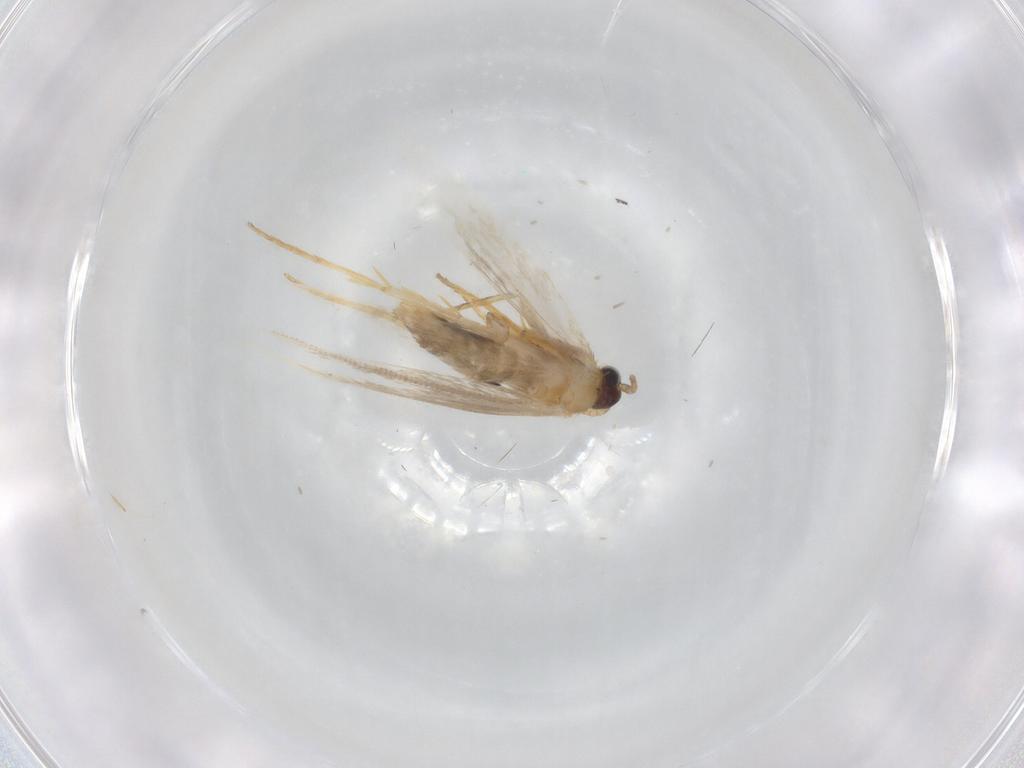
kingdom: Animalia
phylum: Arthropoda
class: Insecta
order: Lepidoptera
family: Tineidae
